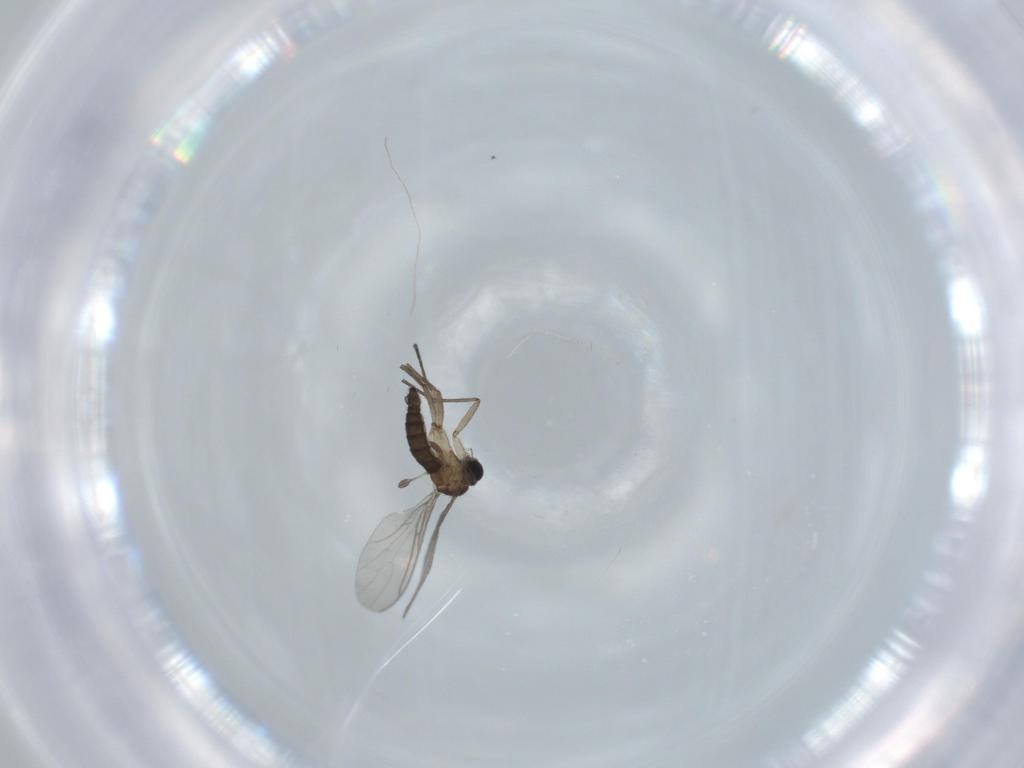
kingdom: Animalia
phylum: Arthropoda
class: Insecta
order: Diptera
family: Sciaridae
